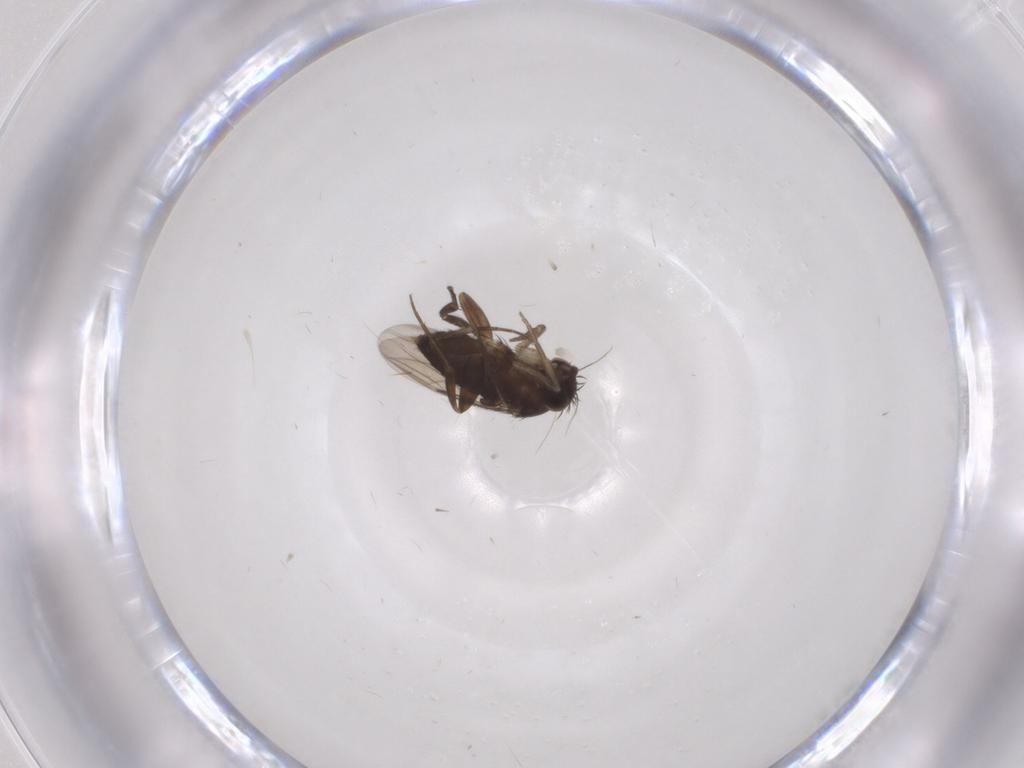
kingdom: Animalia
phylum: Arthropoda
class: Insecta
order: Diptera
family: Phoridae
